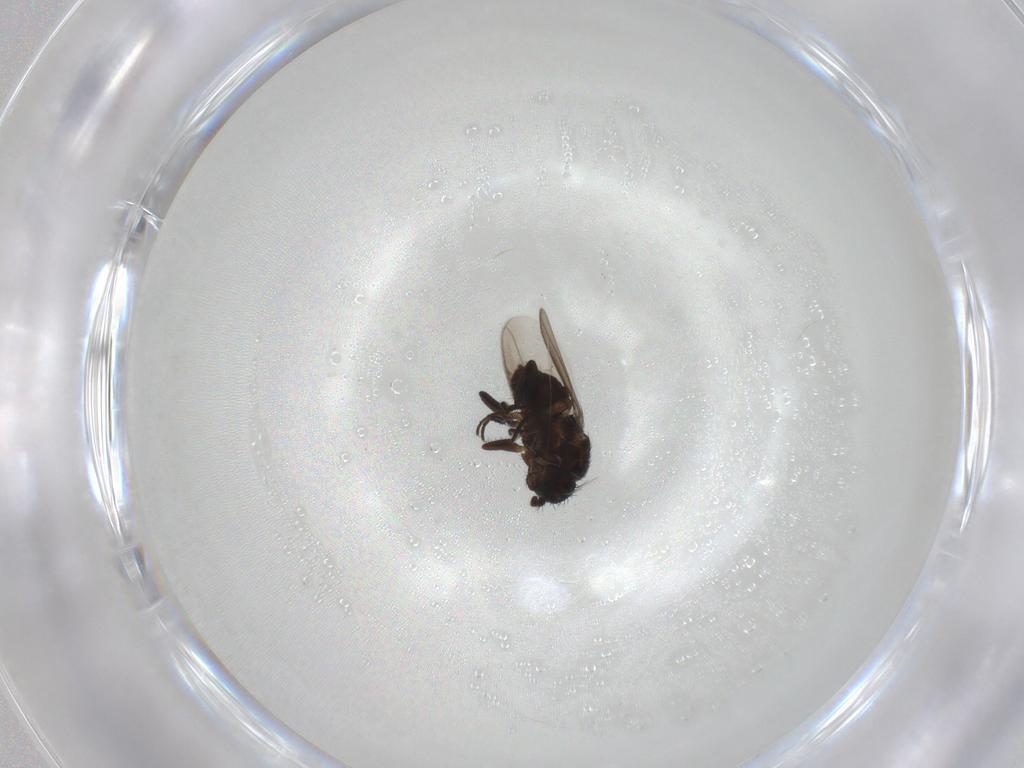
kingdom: Animalia
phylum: Arthropoda
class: Insecta
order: Diptera
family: Sphaeroceridae
